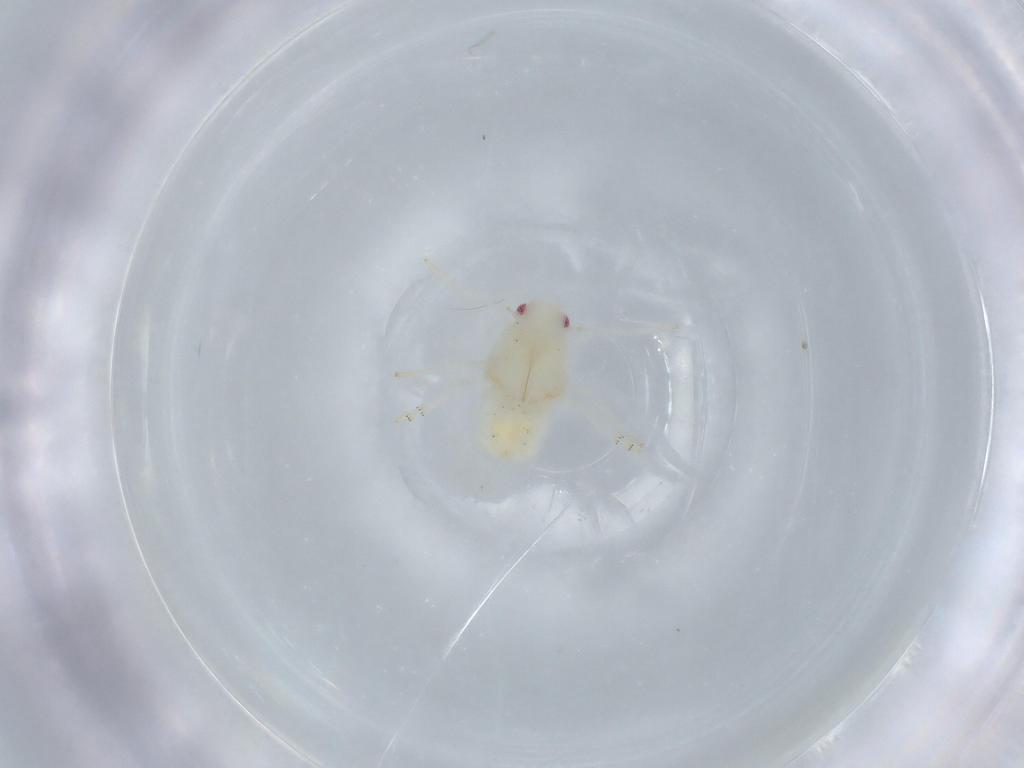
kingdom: Animalia
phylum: Arthropoda
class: Insecta
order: Hemiptera
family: Flatidae
